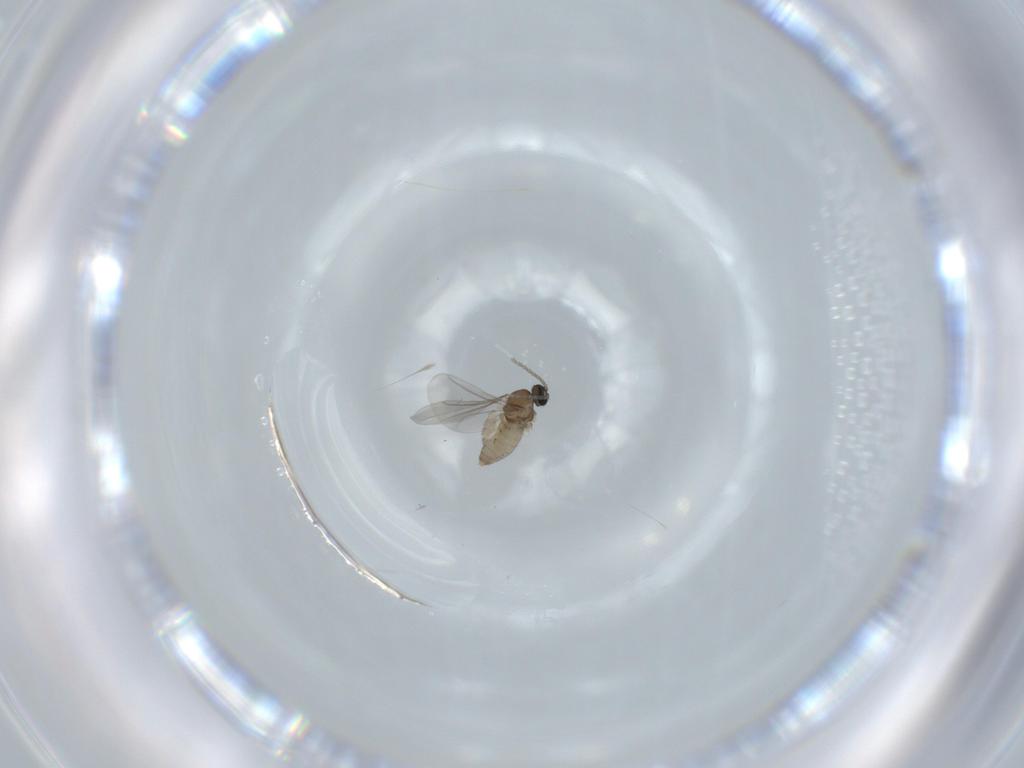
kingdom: Animalia
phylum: Arthropoda
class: Insecta
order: Diptera
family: Cecidomyiidae
